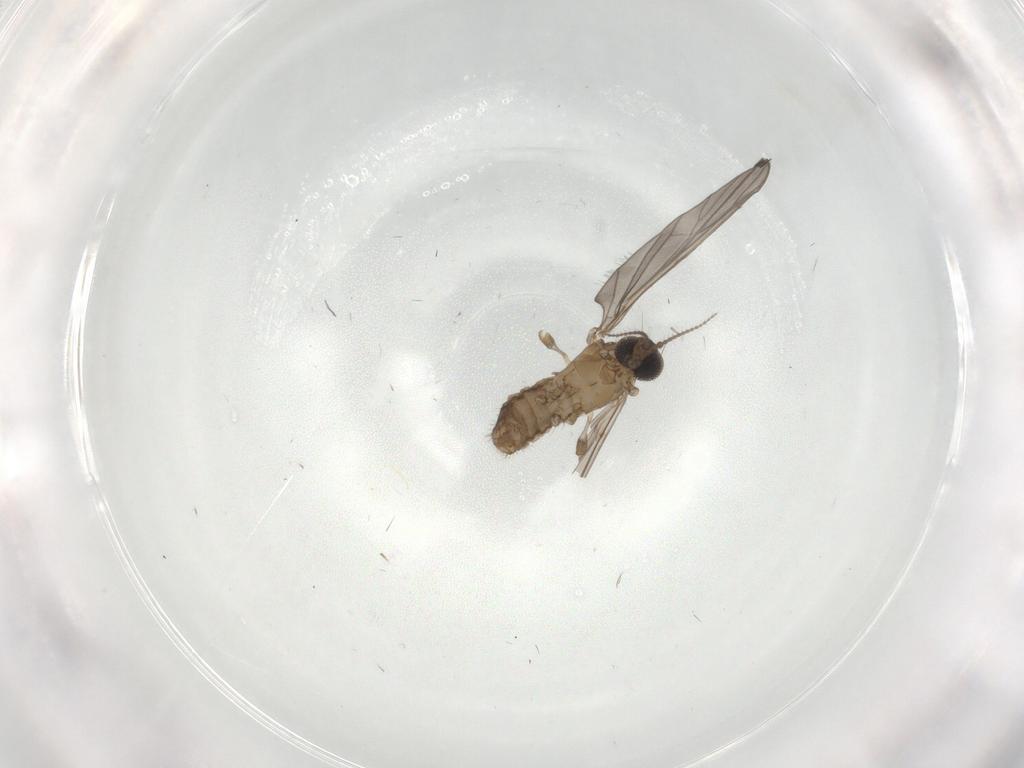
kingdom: Animalia
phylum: Arthropoda
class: Insecta
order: Diptera
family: Limoniidae
